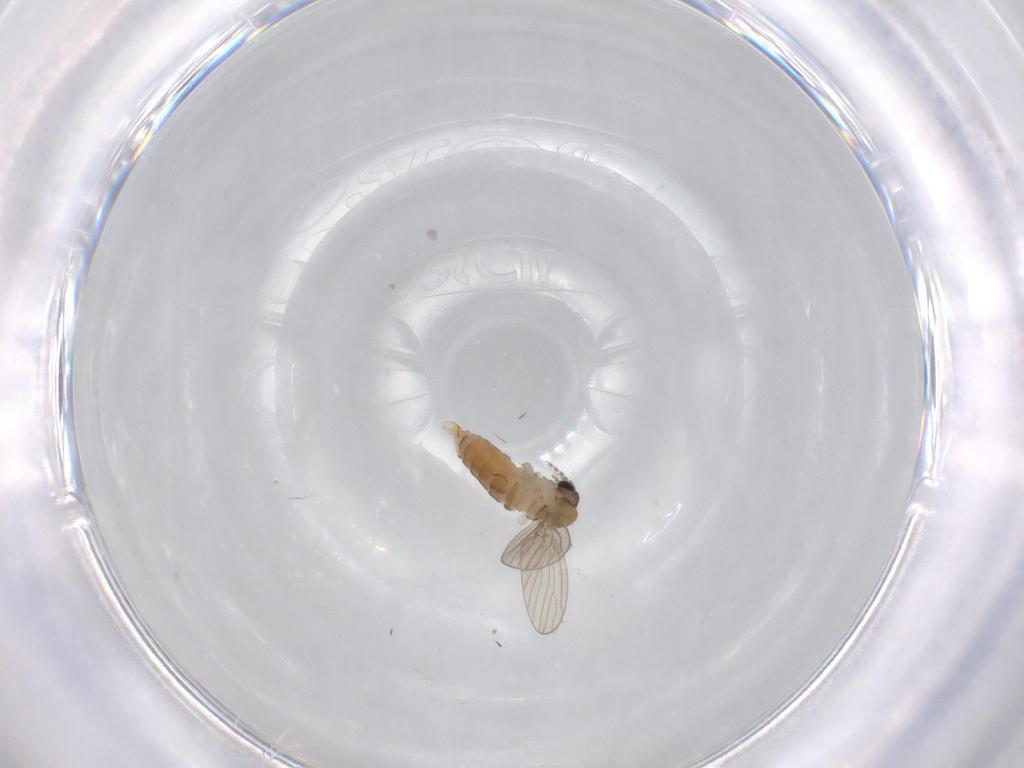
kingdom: Animalia
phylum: Arthropoda
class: Insecta
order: Diptera
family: Psychodidae
